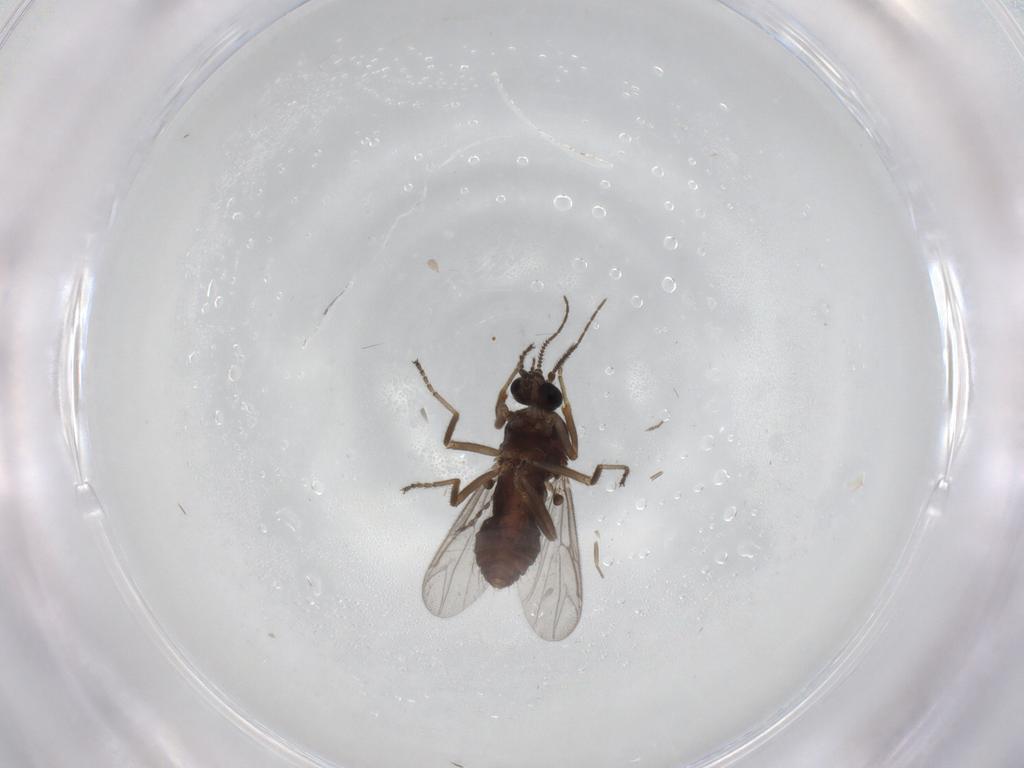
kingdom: Animalia
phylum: Arthropoda
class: Insecta
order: Diptera
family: Ceratopogonidae
